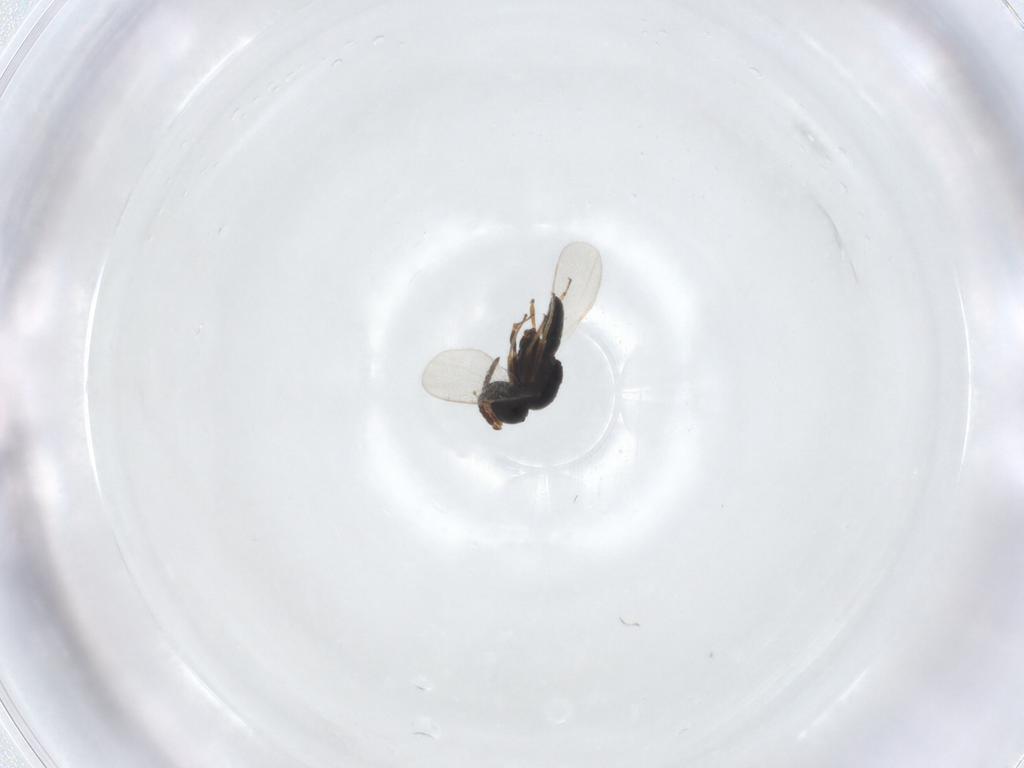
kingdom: Animalia
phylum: Arthropoda
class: Insecta
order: Hymenoptera
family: Scelionidae
